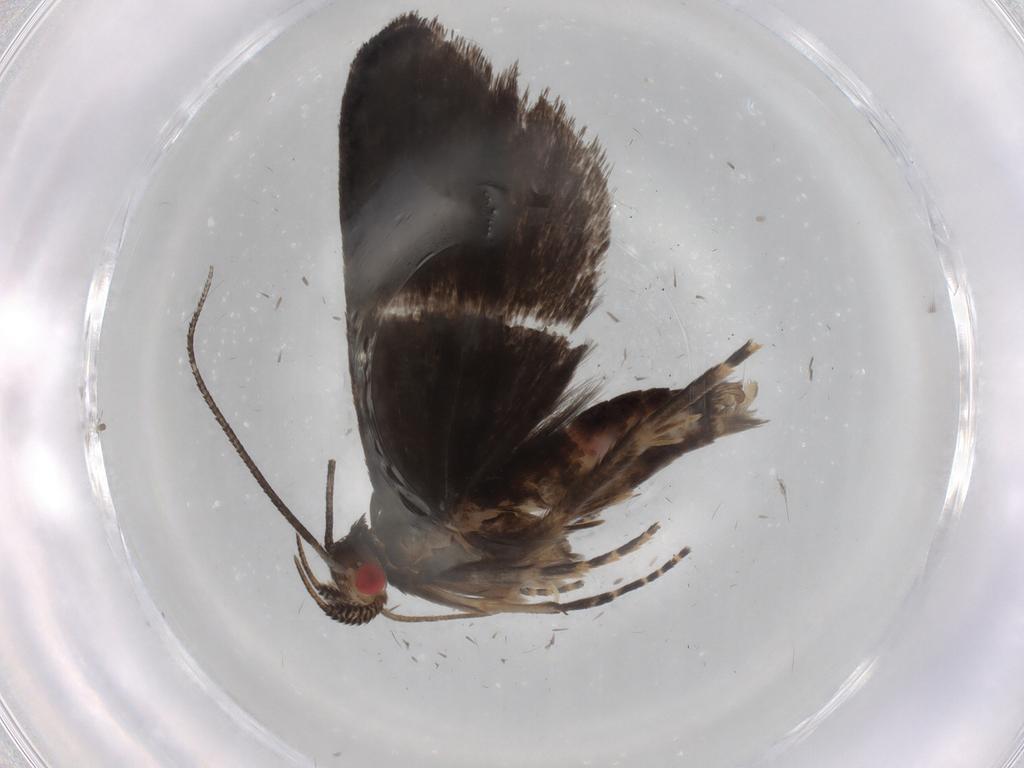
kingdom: Animalia
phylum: Arthropoda
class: Insecta
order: Lepidoptera
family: Gelechiidae
